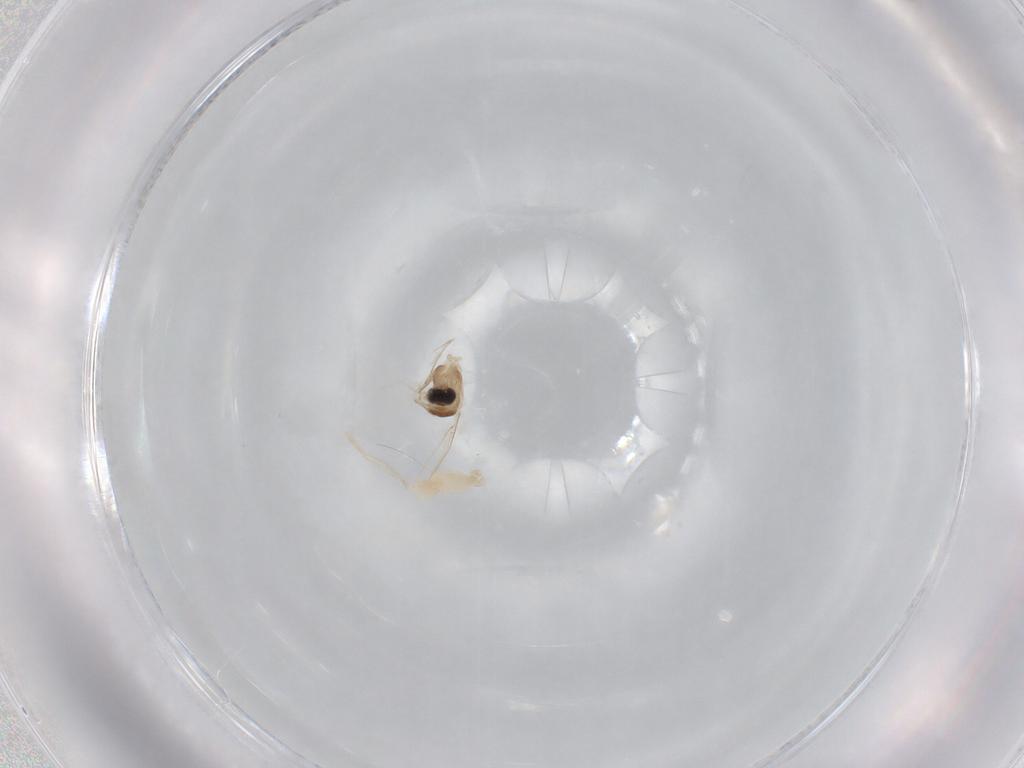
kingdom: Animalia
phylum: Arthropoda
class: Insecta
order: Diptera
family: Cecidomyiidae
